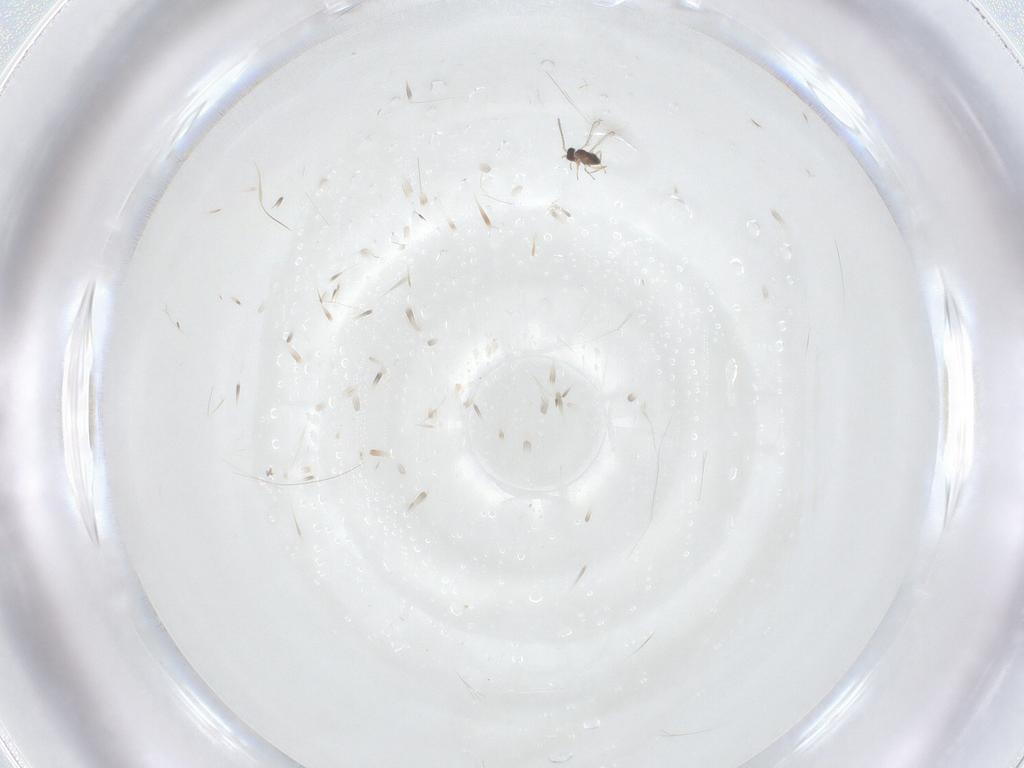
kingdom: Animalia
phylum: Arthropoda
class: Insecta
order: Hymenoptera
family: Mymaridae
